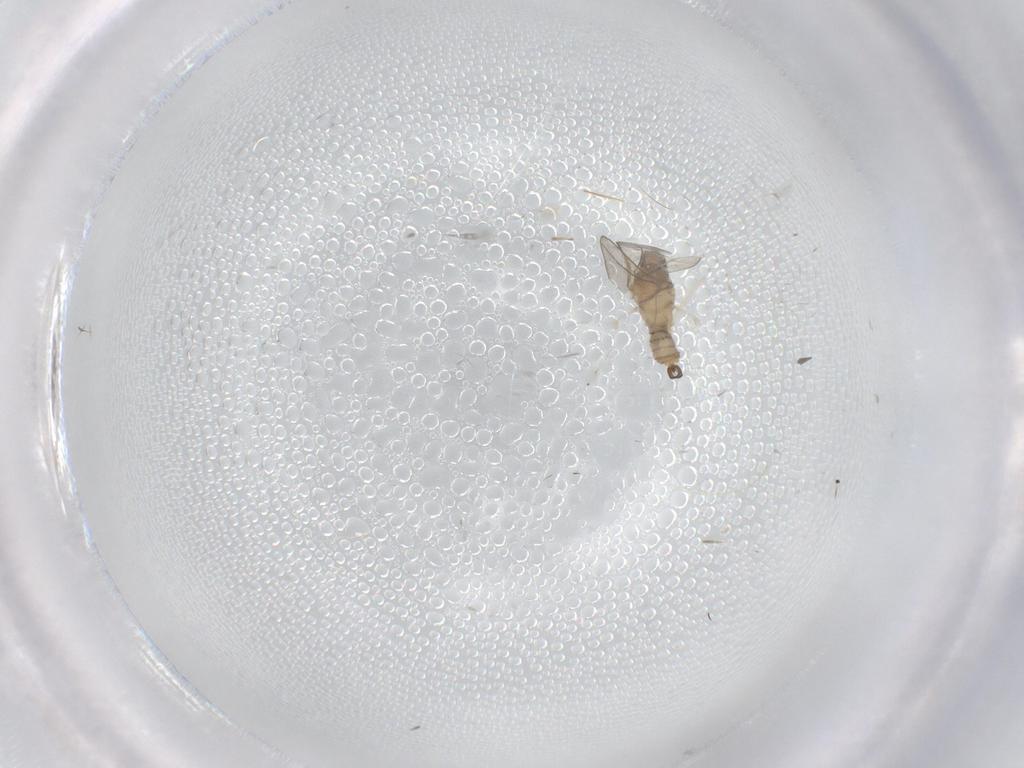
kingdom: Animalia
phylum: Arthropoda
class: Insecta
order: Diptera
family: Cecidomyiidae
